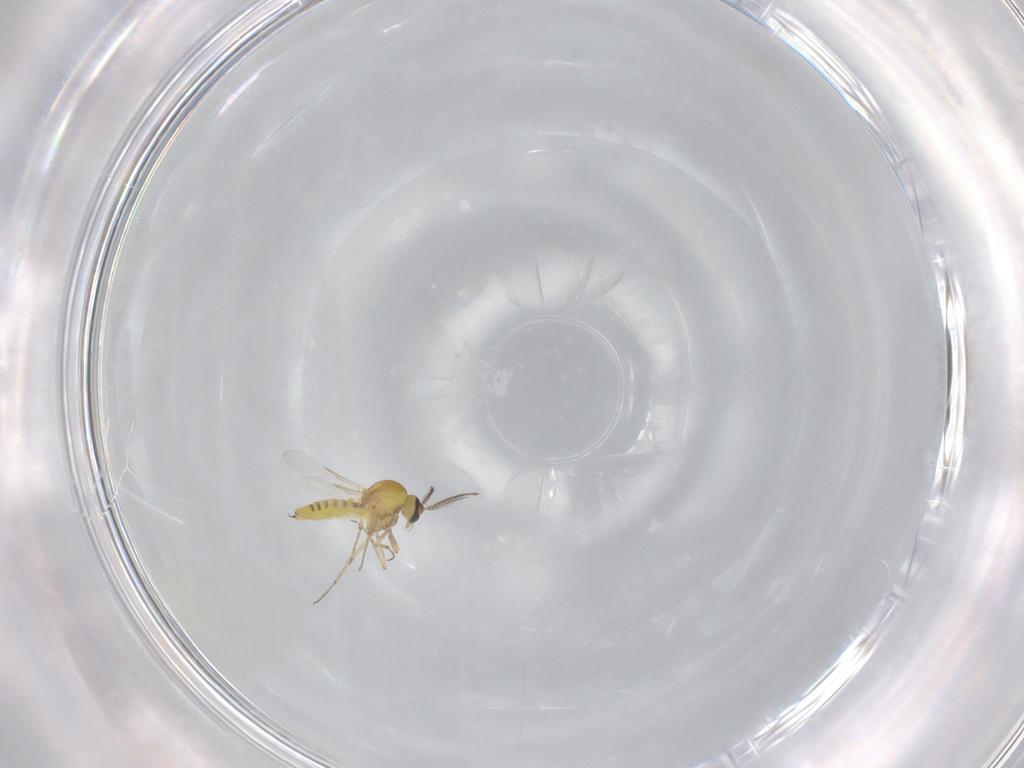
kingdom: Animalia
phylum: Arthropoda
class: Insecta
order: Diptera
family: Ceratopogonidae
